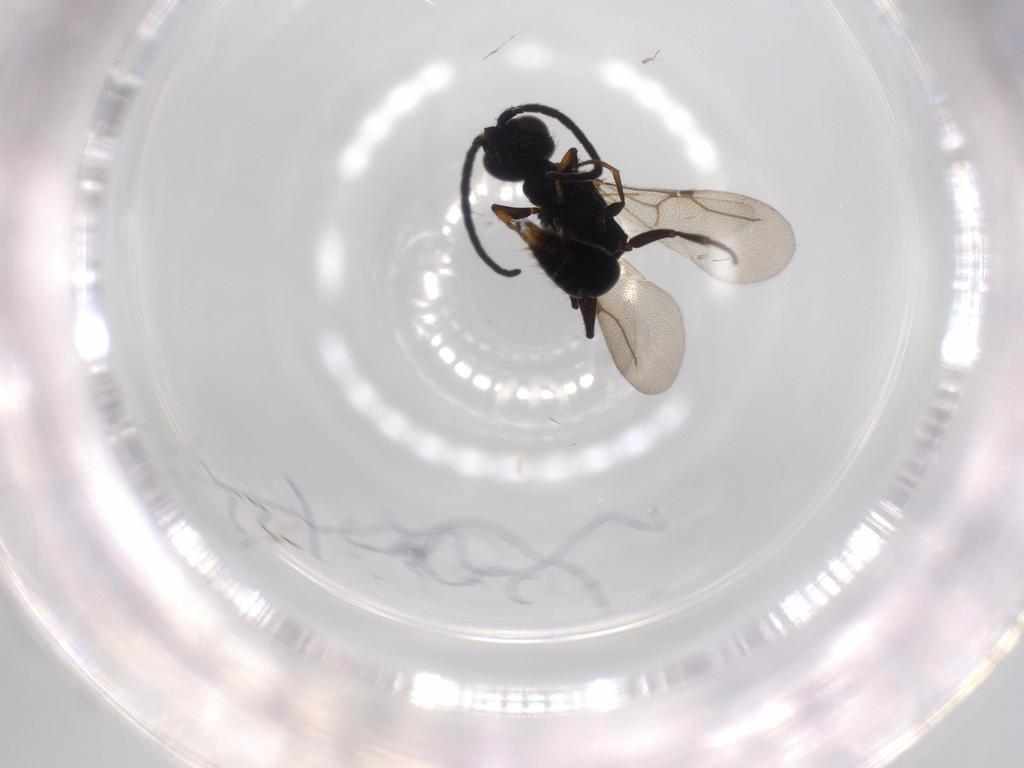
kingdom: Animalia
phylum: Arthropoda
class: Insecta
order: Hymenoptera
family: Bethylidae
